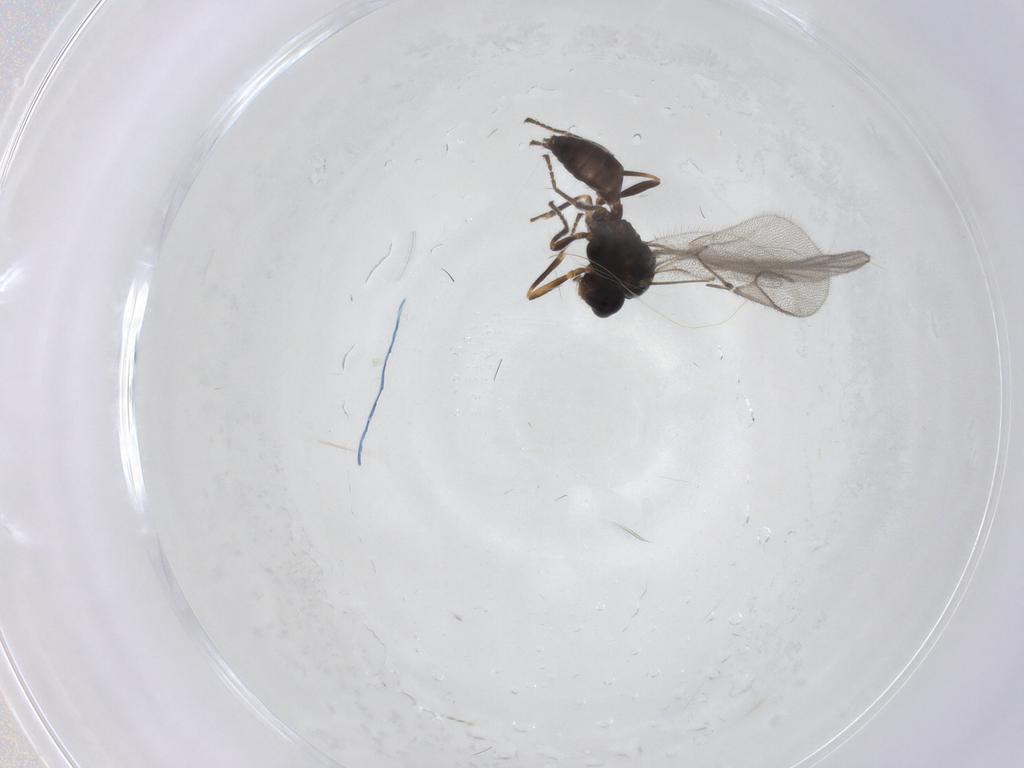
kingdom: Animalia
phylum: Arthropoda
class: Insecta
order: Hymenoptera
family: Braconidae
